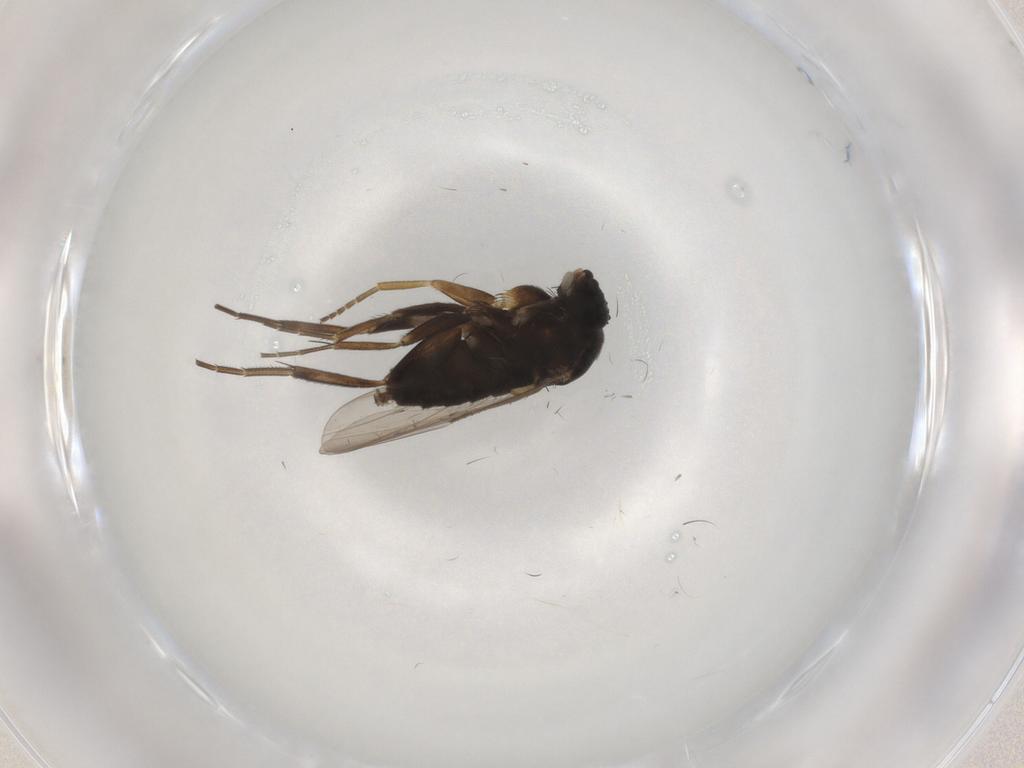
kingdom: Animalia
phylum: Arthropoda
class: Insecta
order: Diptera
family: Phoridae
